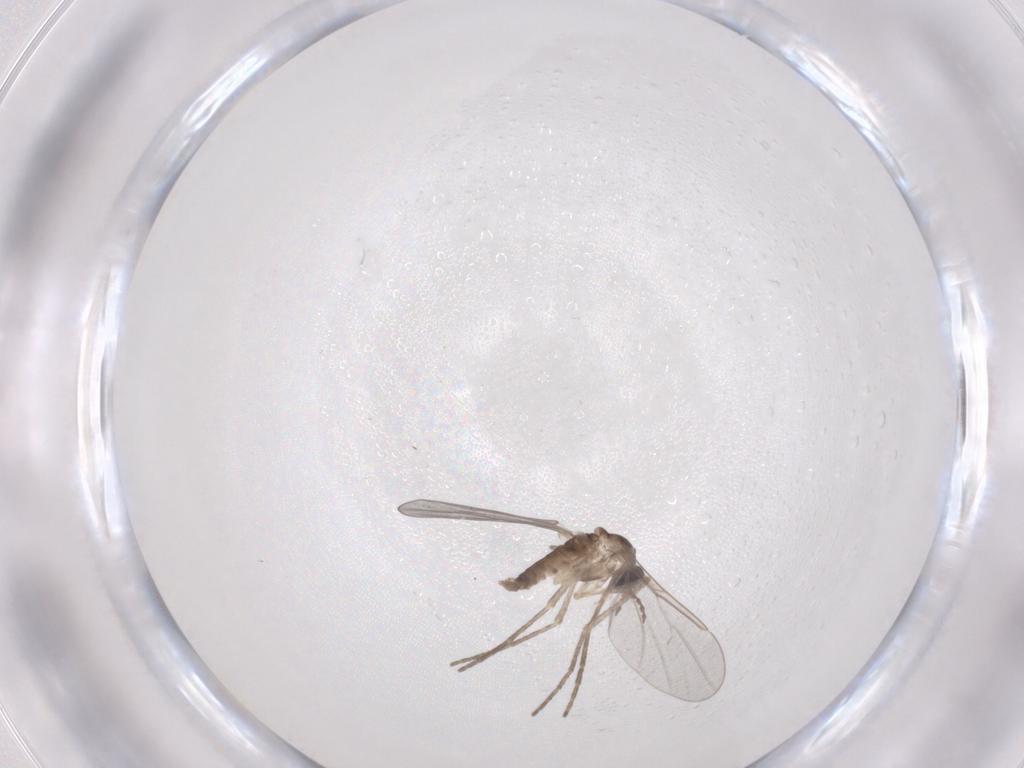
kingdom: Animalia
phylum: Arthropoda
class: Insecta
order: Diptera
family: Cecidomyiidae
